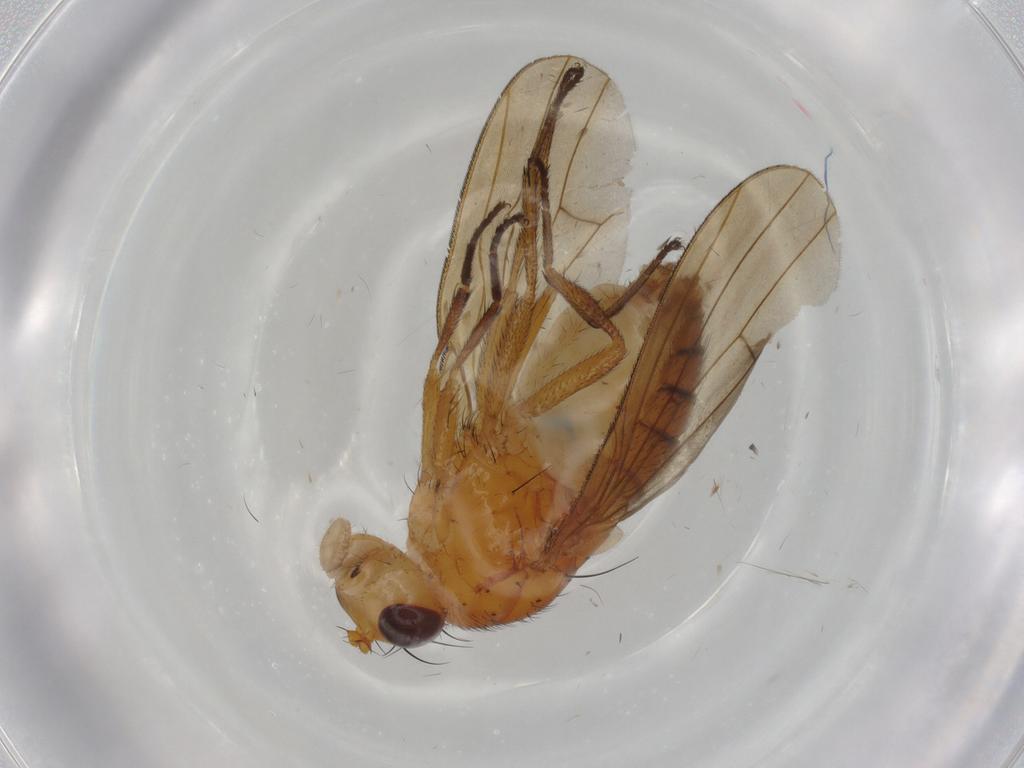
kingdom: Animalia
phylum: Arthropoda
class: Insecta
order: Diptera
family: Lauxaniidae
